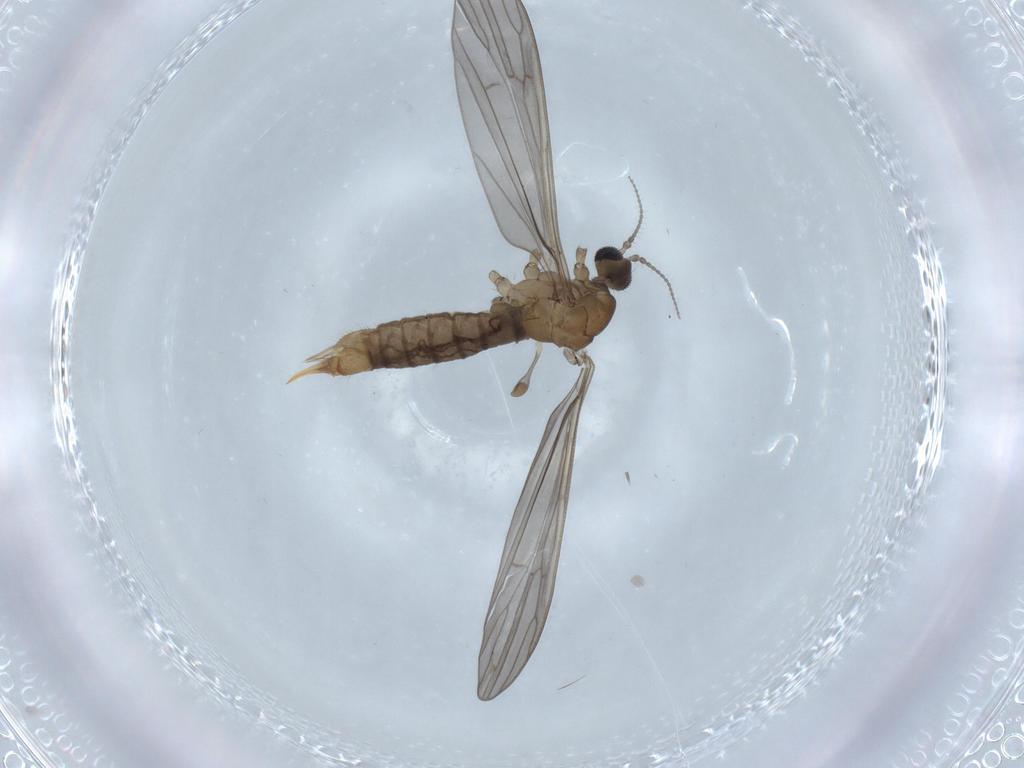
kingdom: Animalia
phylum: Arthropoda
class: Insecta
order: Diptera
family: Limoniidae
